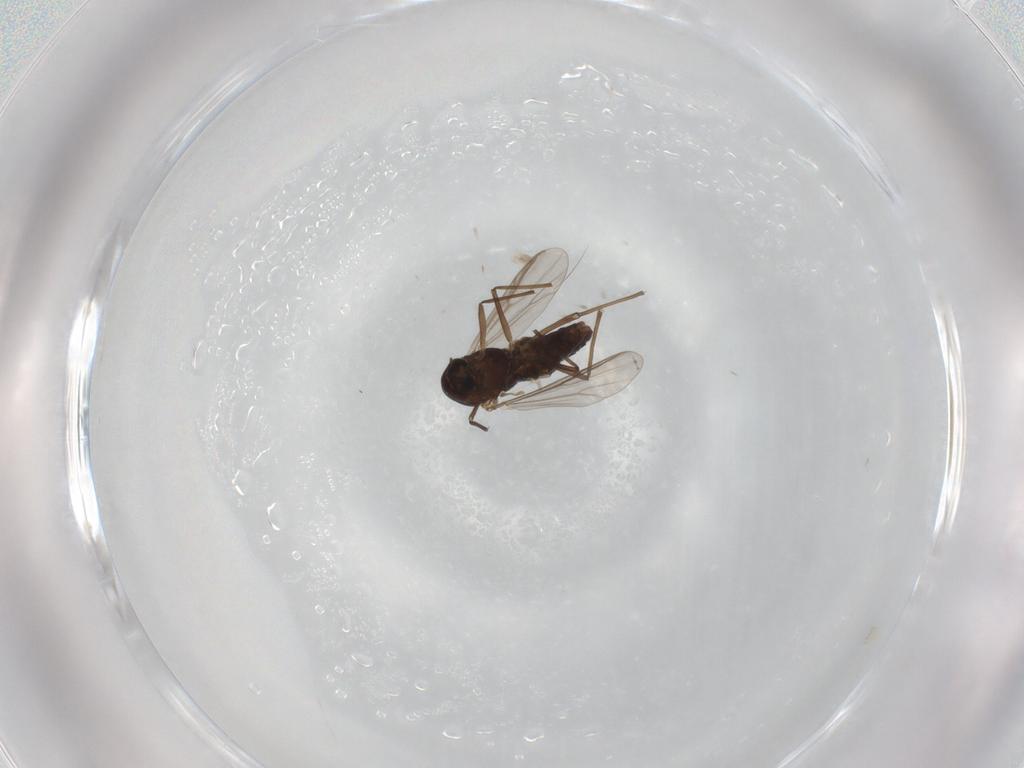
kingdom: Animalia
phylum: Arthropoda
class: Insecta
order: Diptera
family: Chironomidae
